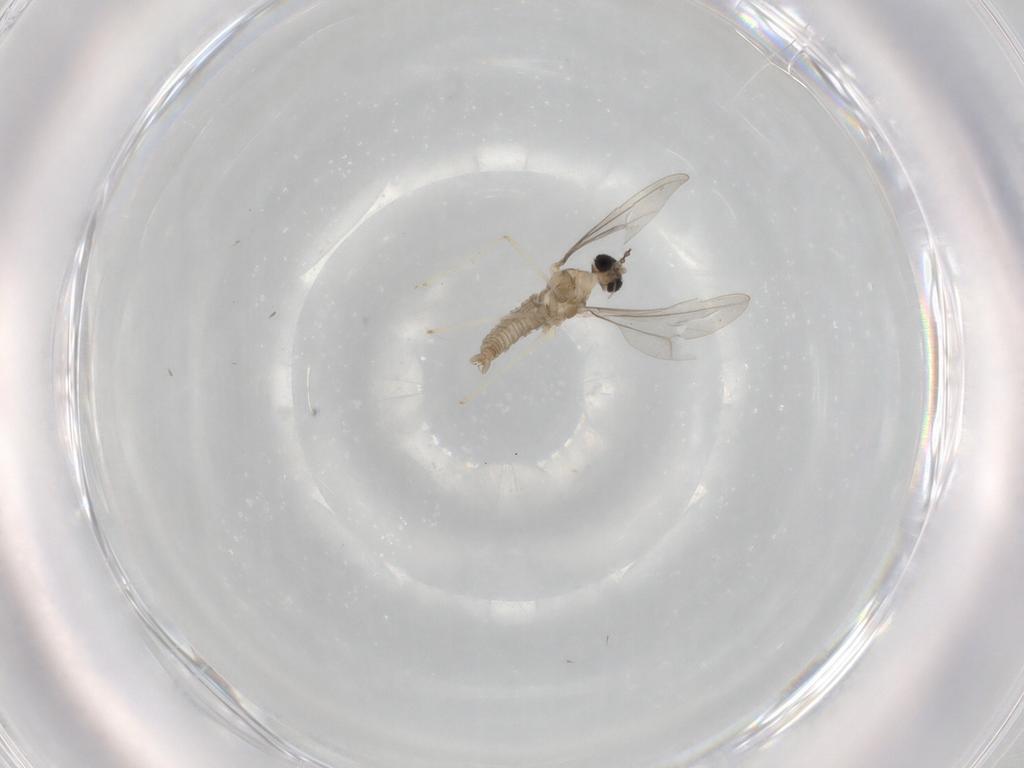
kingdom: Animalia
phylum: Arthropoda
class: Insecta
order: Diptera
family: Cecidomyiidae
